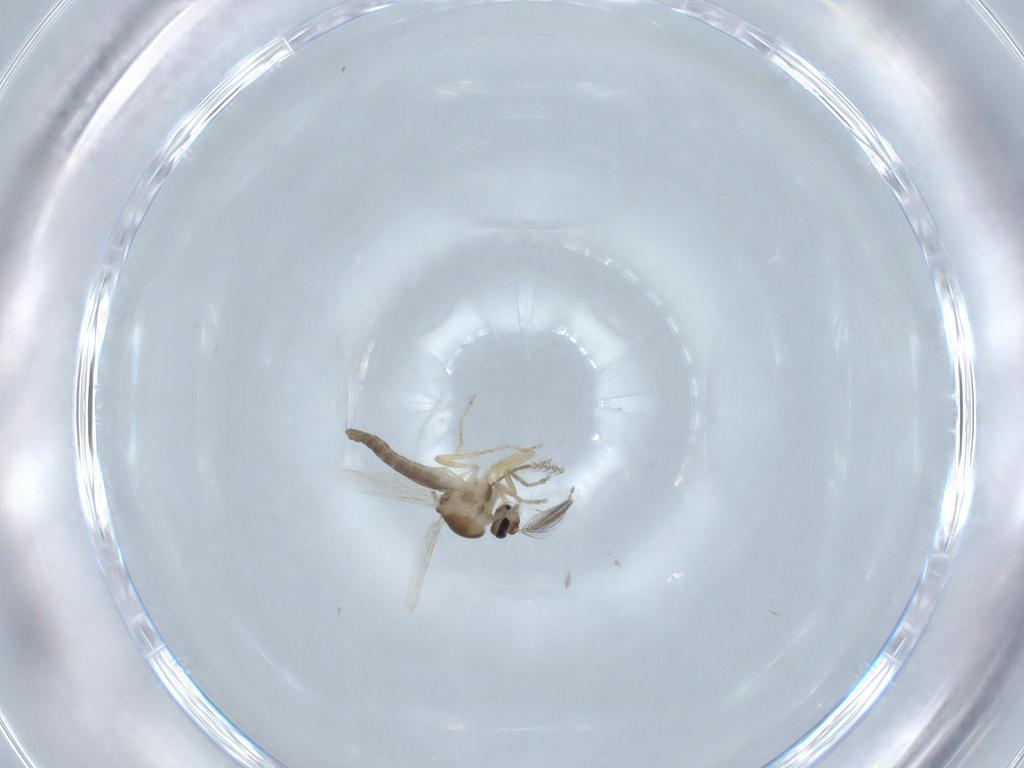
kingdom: Animalia
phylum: Arthropoda
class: Insecta
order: Diptera
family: Ceratopogonidae
